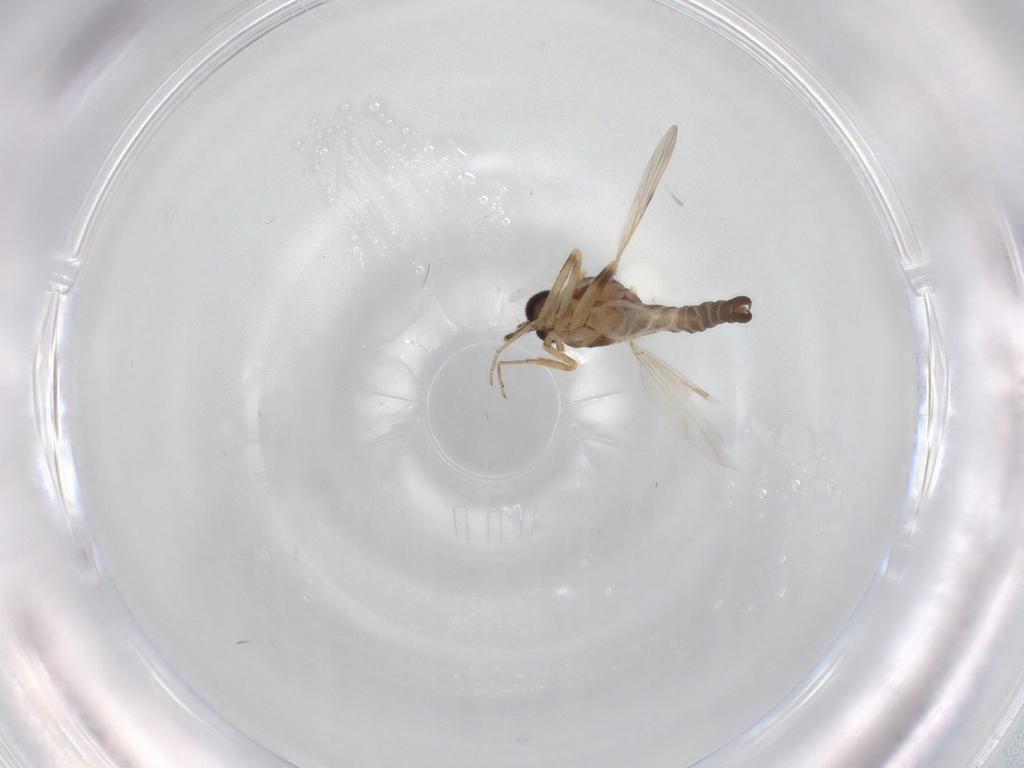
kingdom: Animalia
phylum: Arthropoda
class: Insecta
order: Diptera
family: Ceratopogonidae
